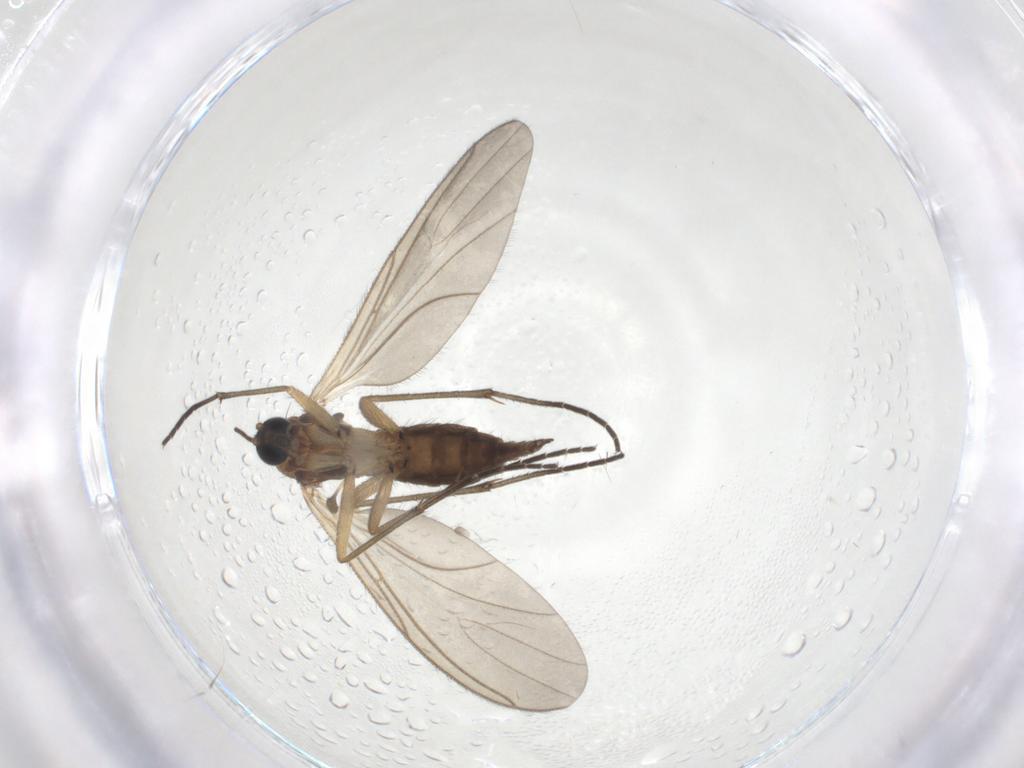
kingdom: Animalia
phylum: Arthropoda
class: Insecta
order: Diptera
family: Sciaridae
